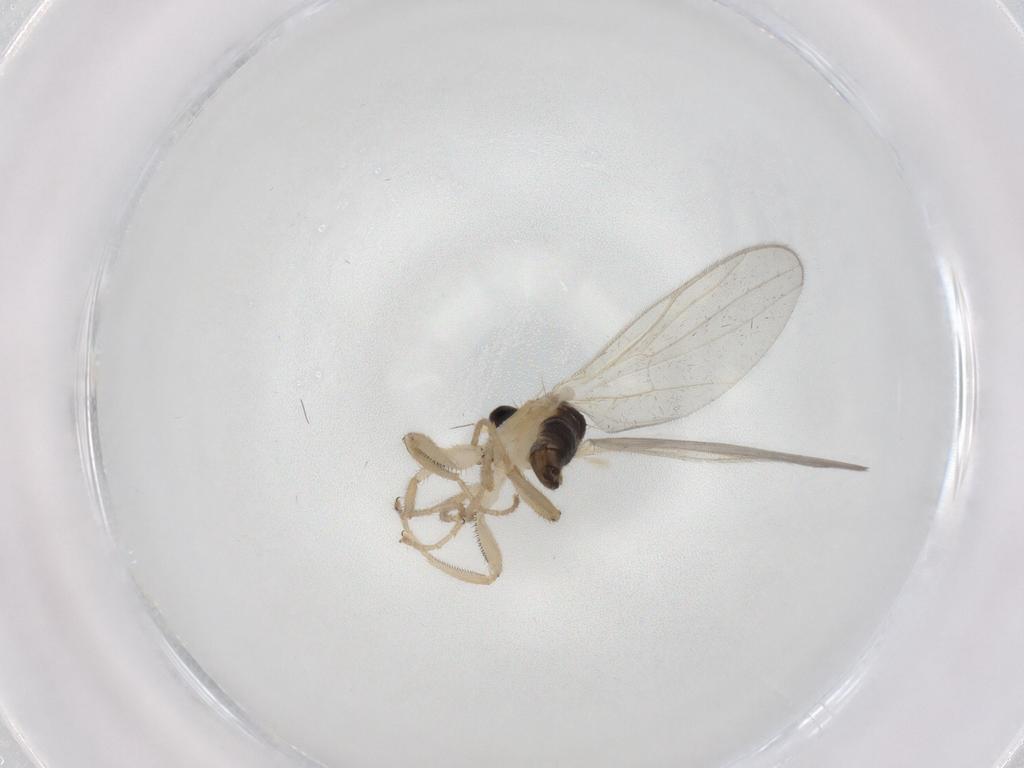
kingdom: Animalia
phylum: Arthropoda
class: Insecta
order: Diptera
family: Hybotidae
